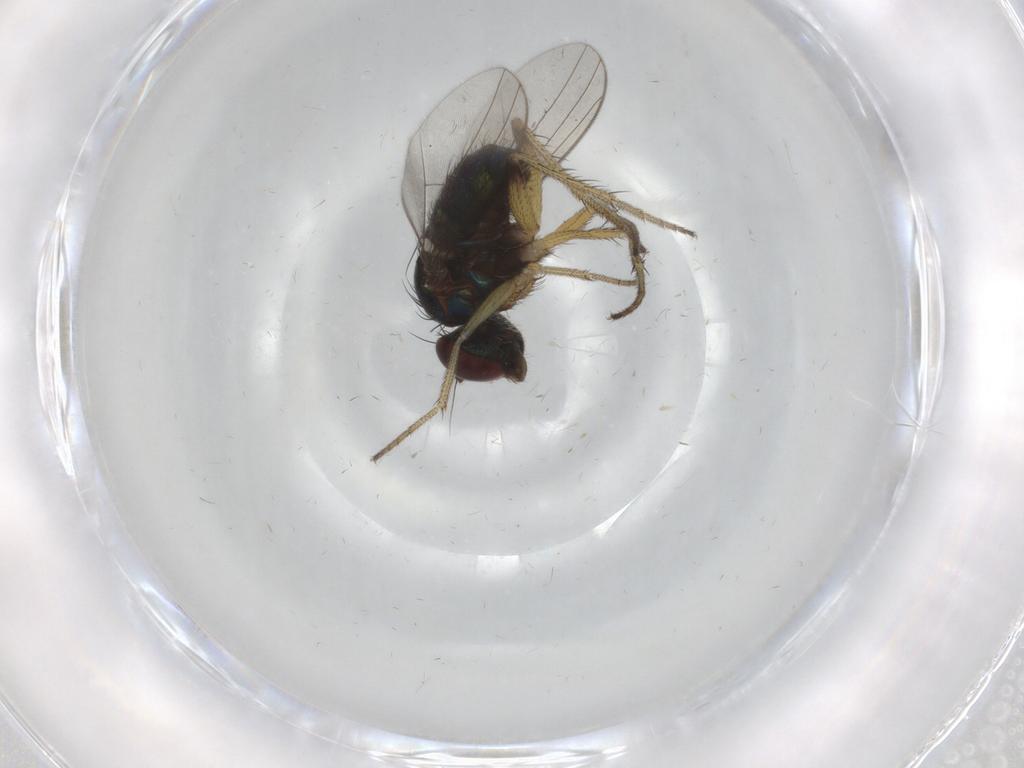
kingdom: Animalia
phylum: Arthropoda
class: Insecta
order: Diptera
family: Dolichopodidae
